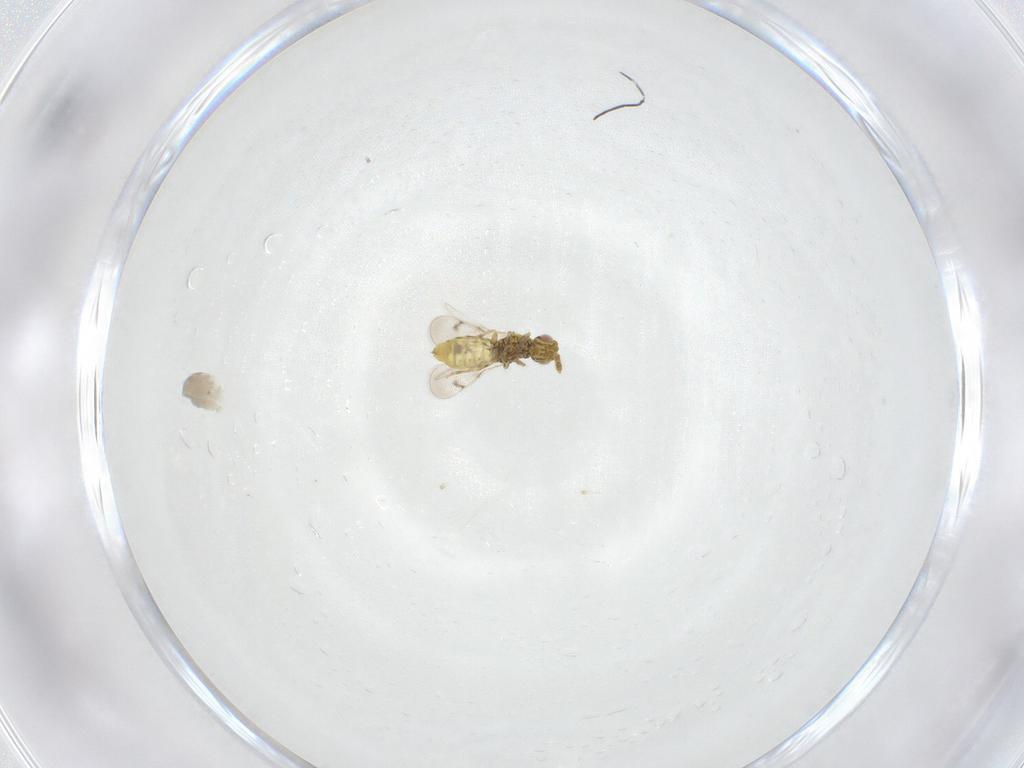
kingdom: Animalia
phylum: Arthropoda
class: Insecta
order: Hymenoptera
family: Eulophidae
